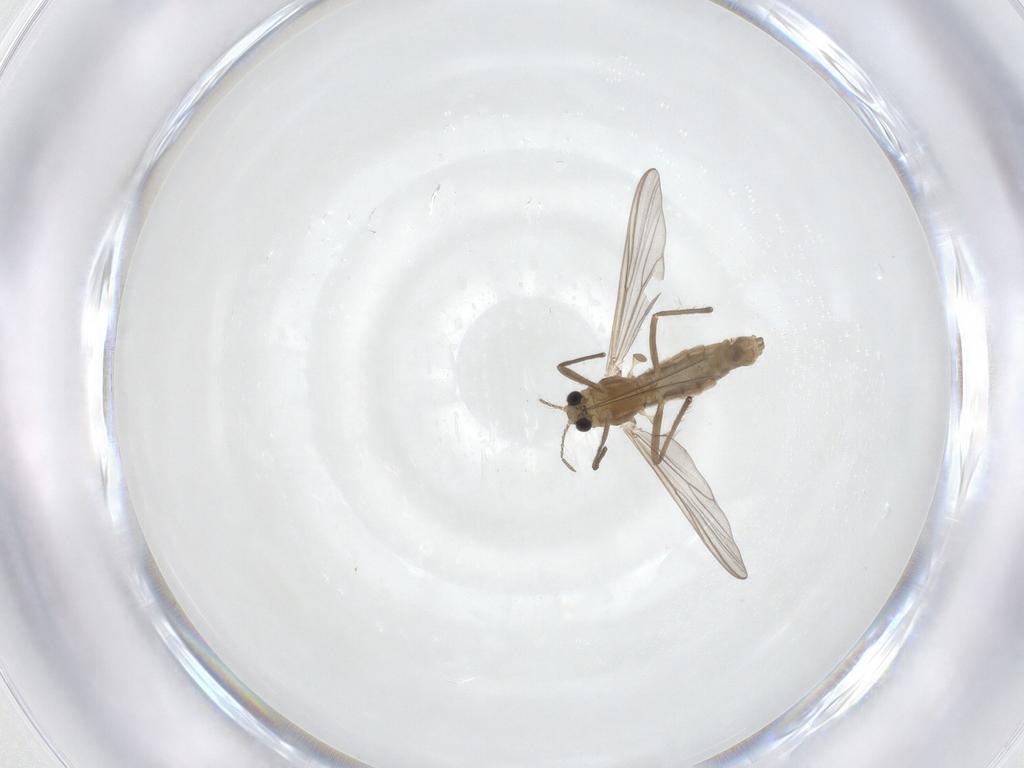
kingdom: Animalia
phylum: Arthropoda
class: Insecta
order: Diptera
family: Chironomidae
